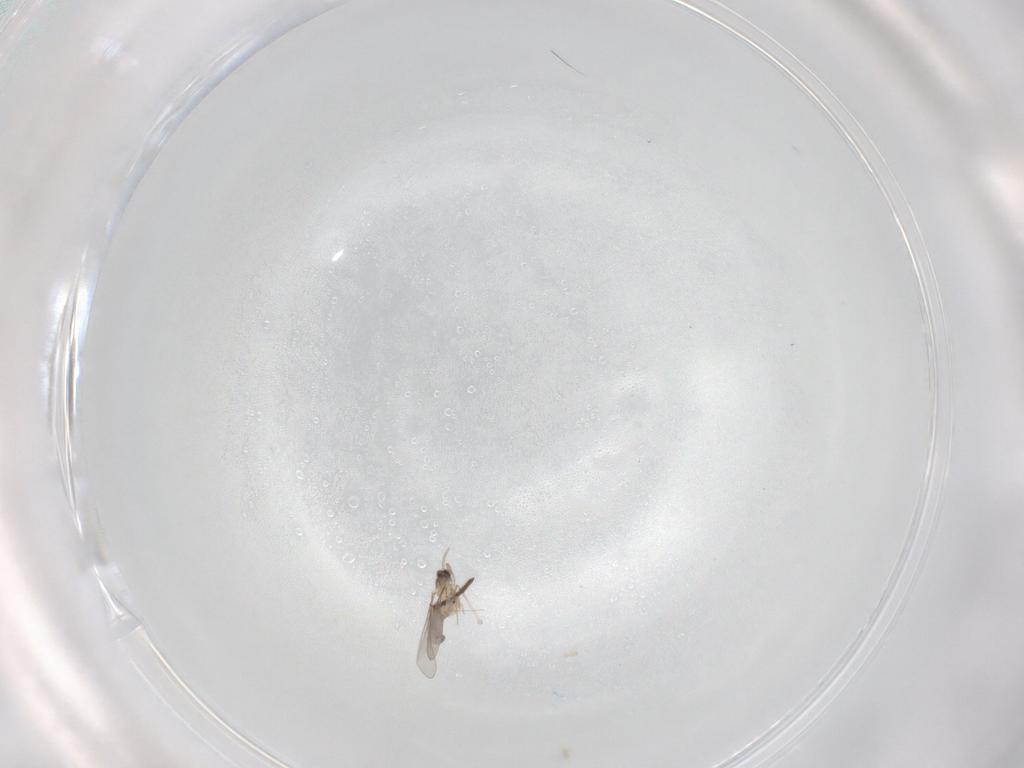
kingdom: Animalia
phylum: Arthropoda
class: Insecta
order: Diptera
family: Cecidomyiidae
